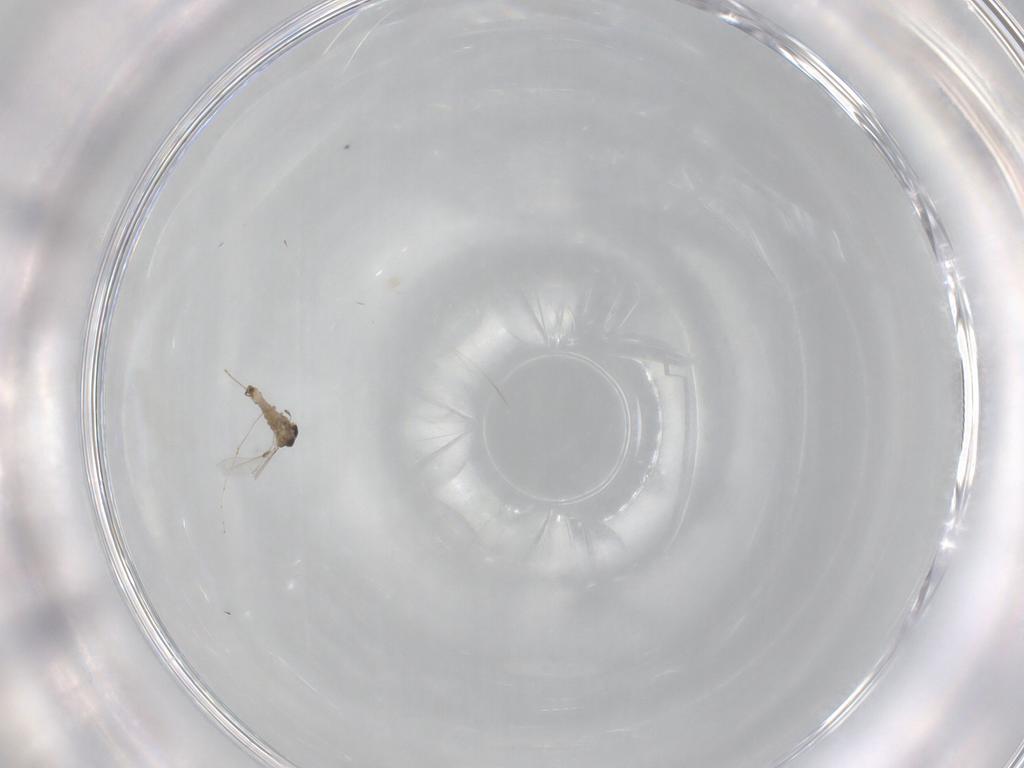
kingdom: Animalia
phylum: Arthropoda
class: Insecta
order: Diptera
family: Cecidomyiidae
